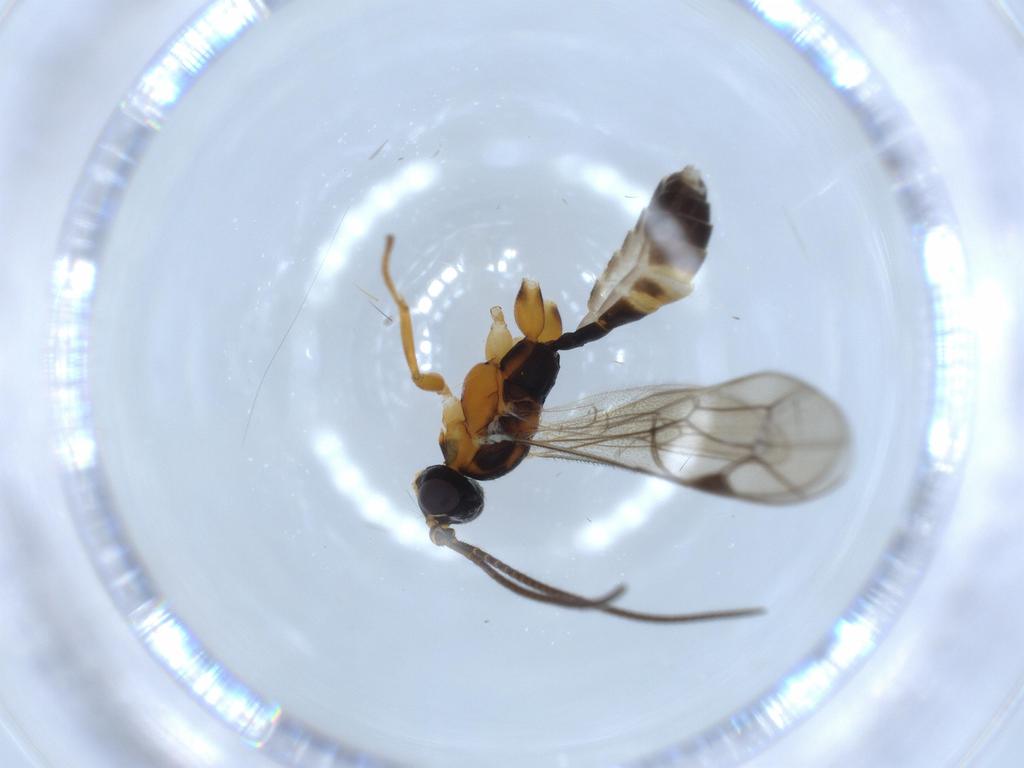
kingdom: Animalia
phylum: Arthropoda
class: Insecta
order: Hymenoptera
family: Ichneumonidae
